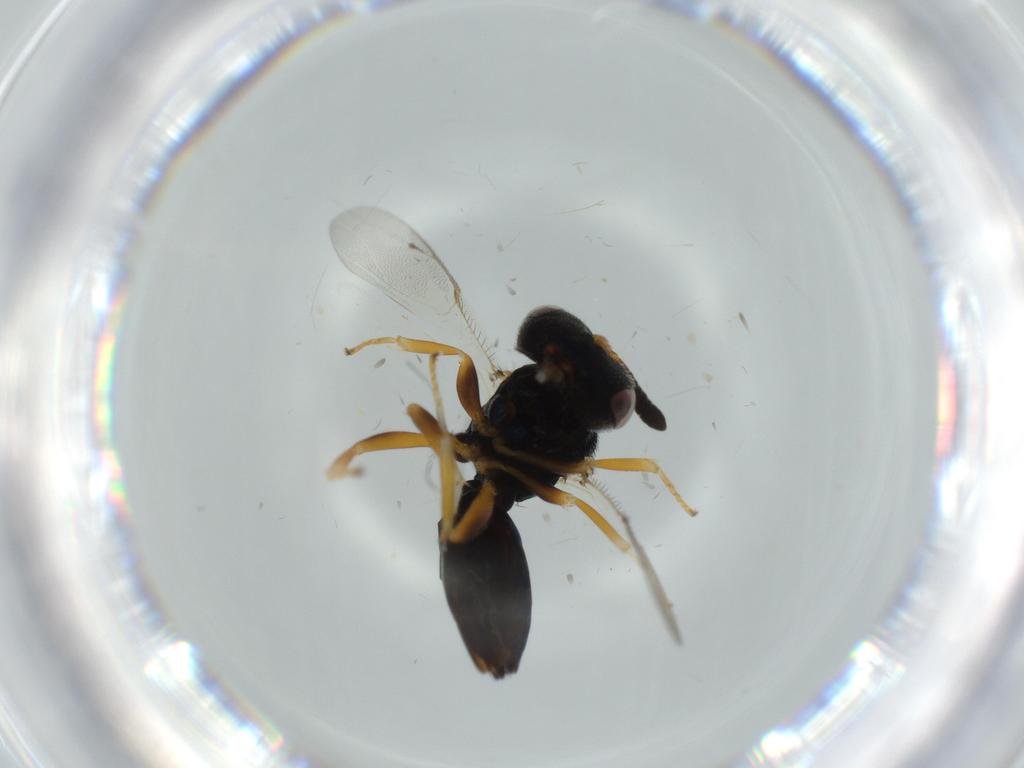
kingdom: Animalia
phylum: Arthropoda
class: Insecta
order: Hymenoptera
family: Agaonidae
